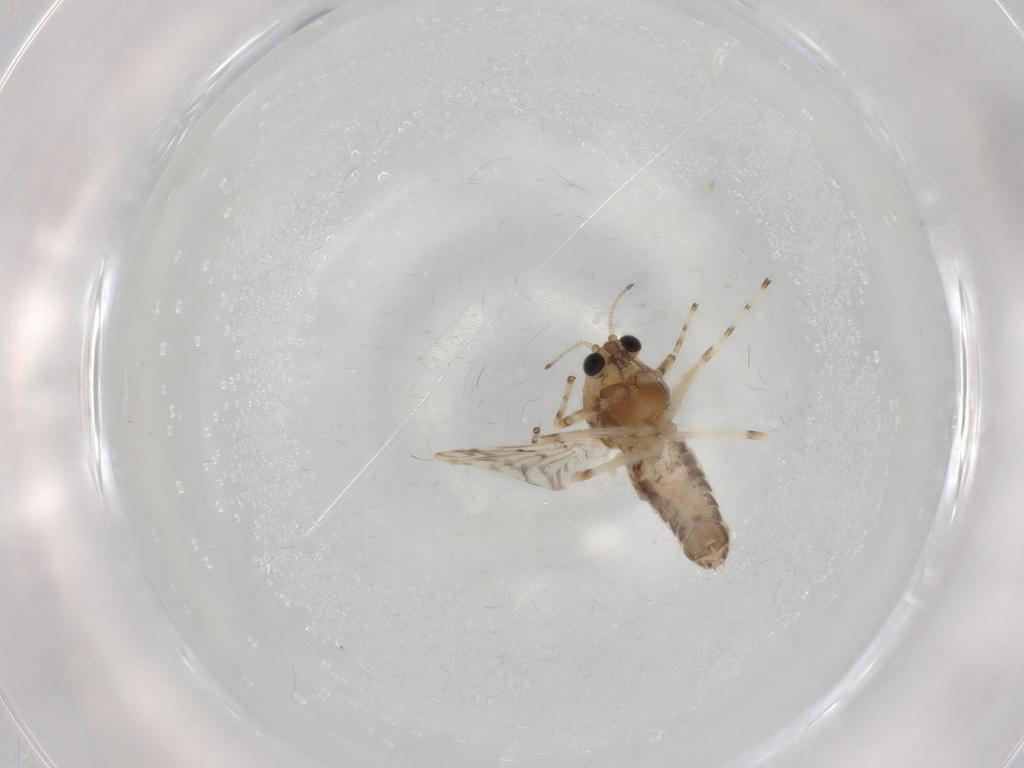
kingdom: Animalia
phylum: Arthropoda
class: Insecta
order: Diptera
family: Chironomidae
